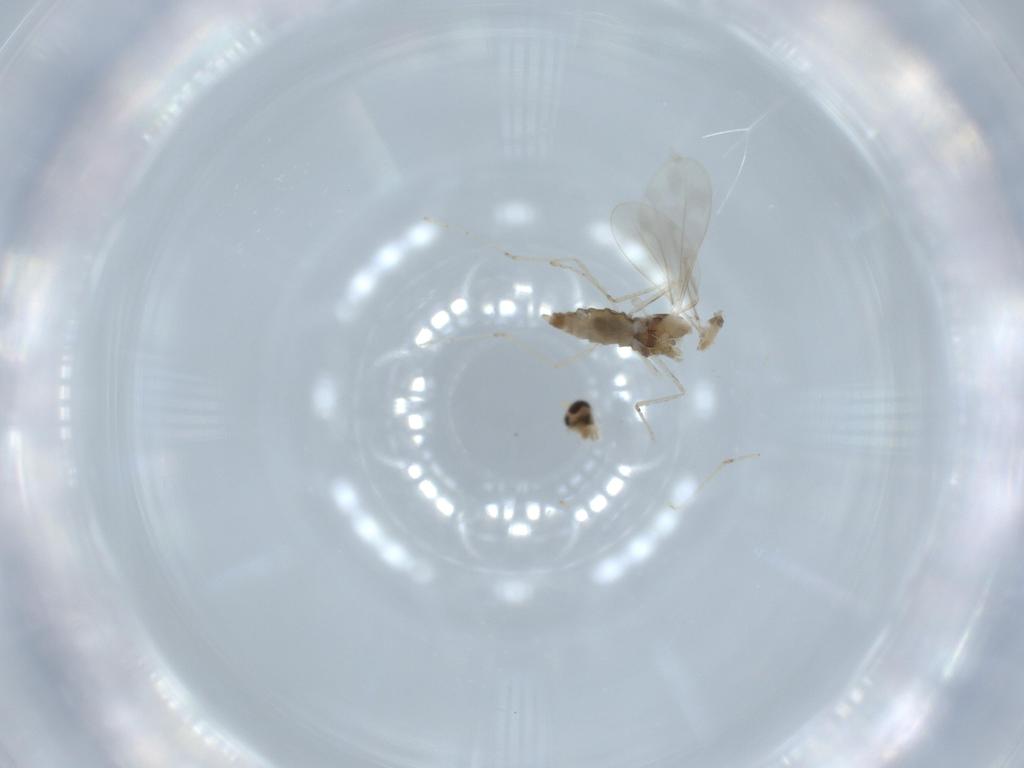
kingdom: Animalia
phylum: Arthropoda
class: Insecta
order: Diptera
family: Cecidomyiidae
